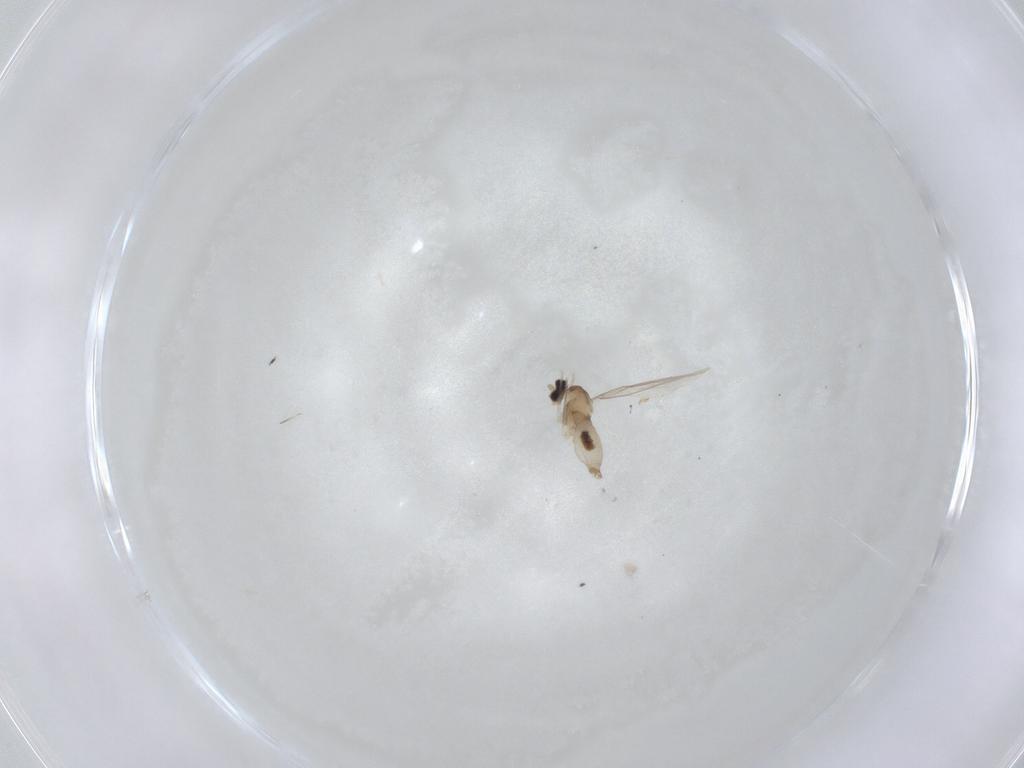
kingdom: Animalia
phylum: Arthropoda
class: Insecta
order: Diptera
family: Cecidomyiidae
